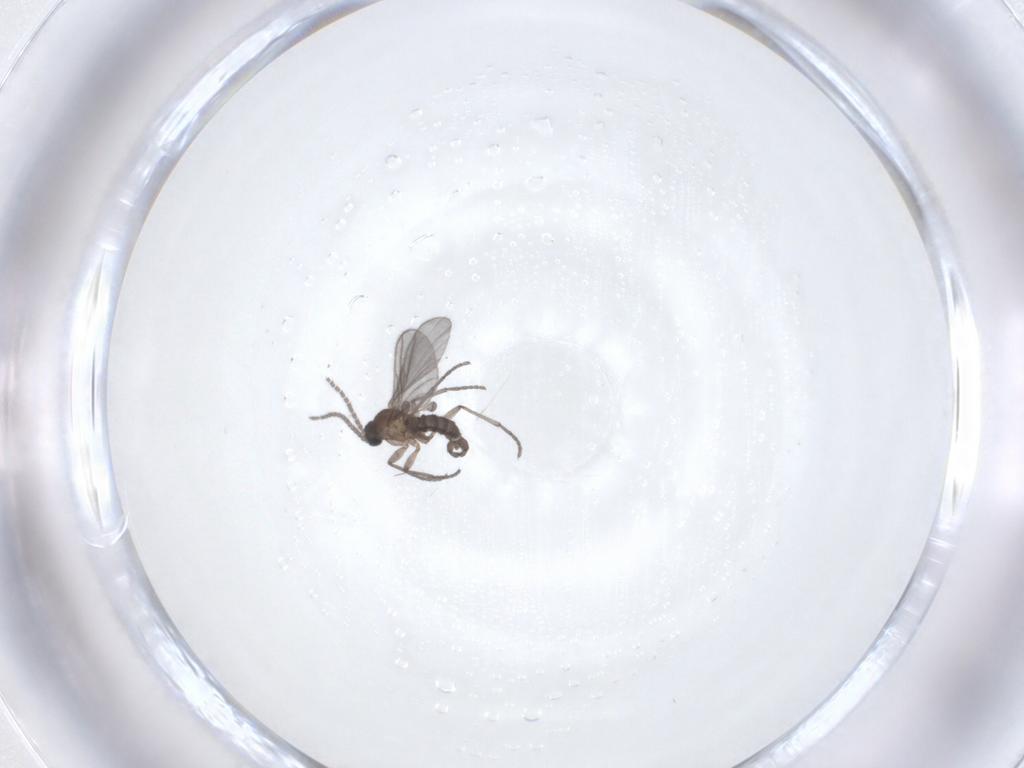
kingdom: Animalia
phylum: Arthropoda
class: Insecta
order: Diptera
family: Sciaridae
